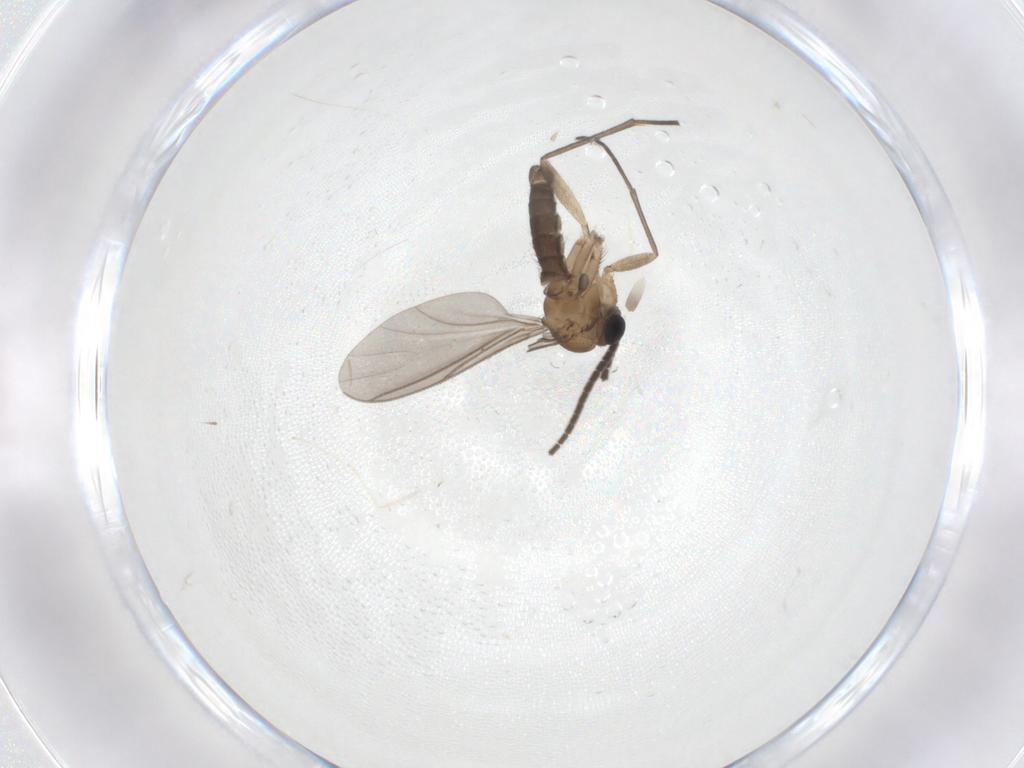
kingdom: Animalia
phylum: Arthropoda
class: Insecta
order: Diptera
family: Sciaridae
